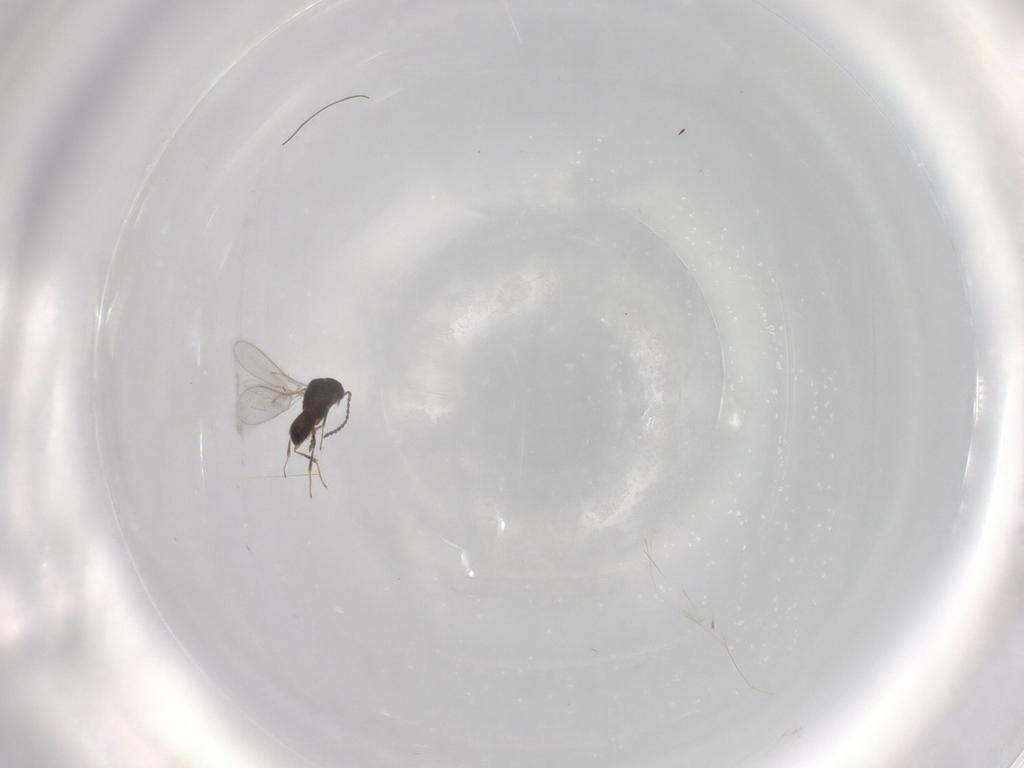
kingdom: Animalia
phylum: Arthropoda
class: Insecta
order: Hymenoptera
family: Scelionidae
